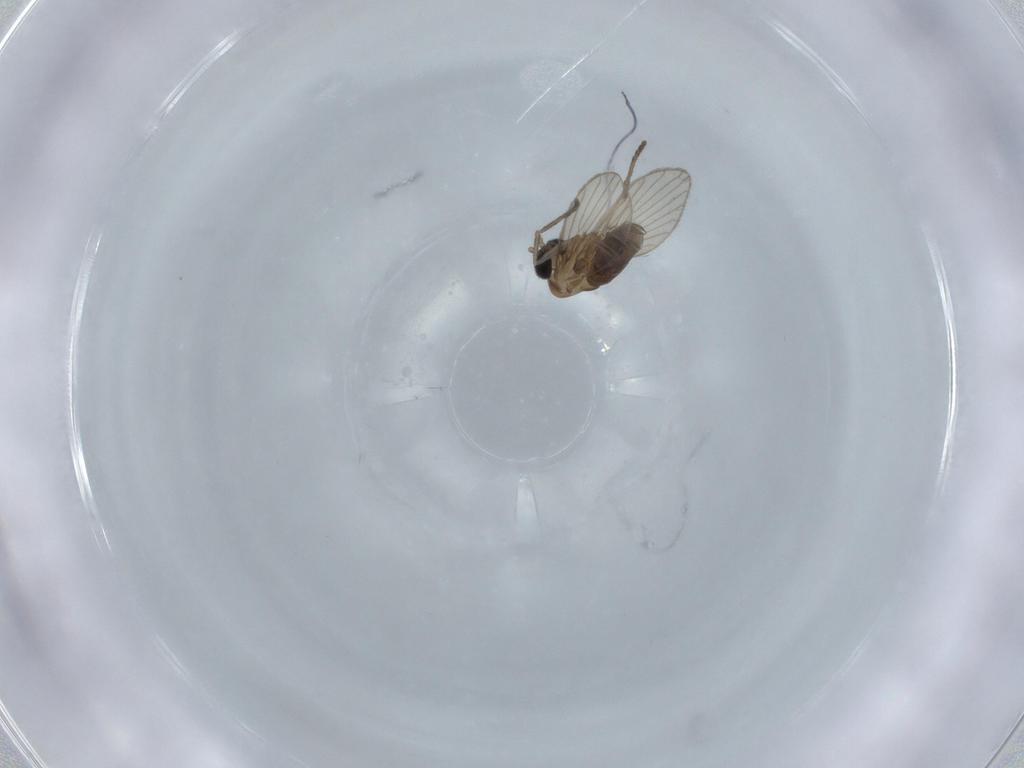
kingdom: Animalia
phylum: Arthropoda
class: Insecta
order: Diptera
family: Psychodidae
